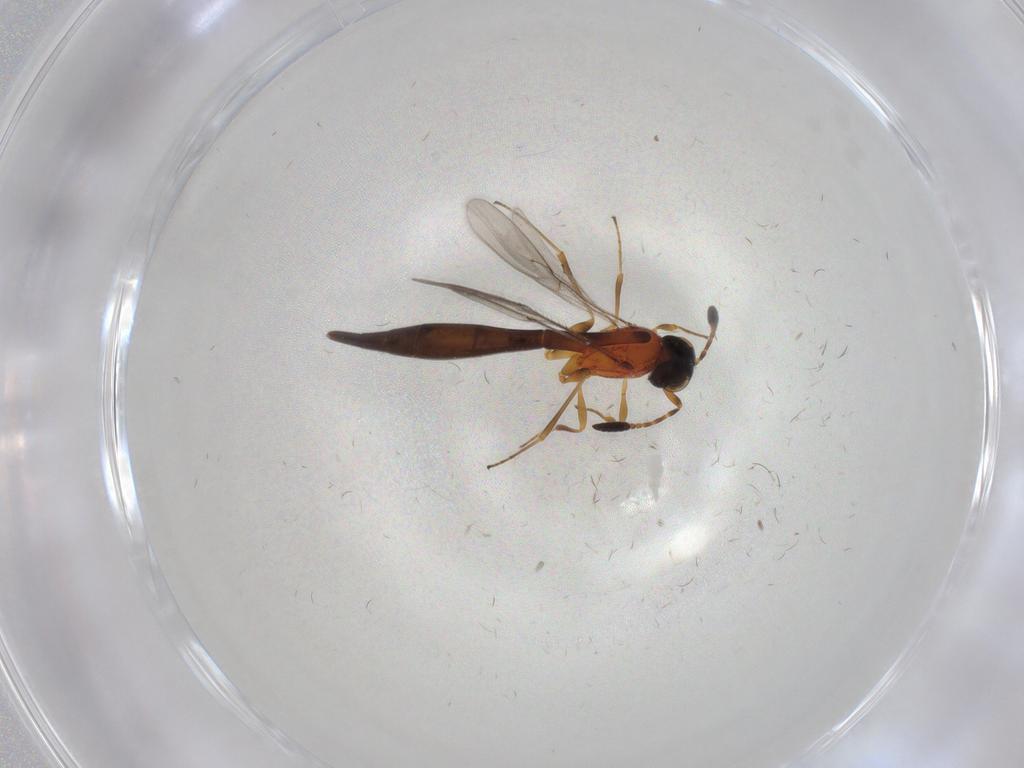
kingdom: Animalia
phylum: Arthropoda
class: Insecta
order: Hymenoptera
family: Scelionidae
